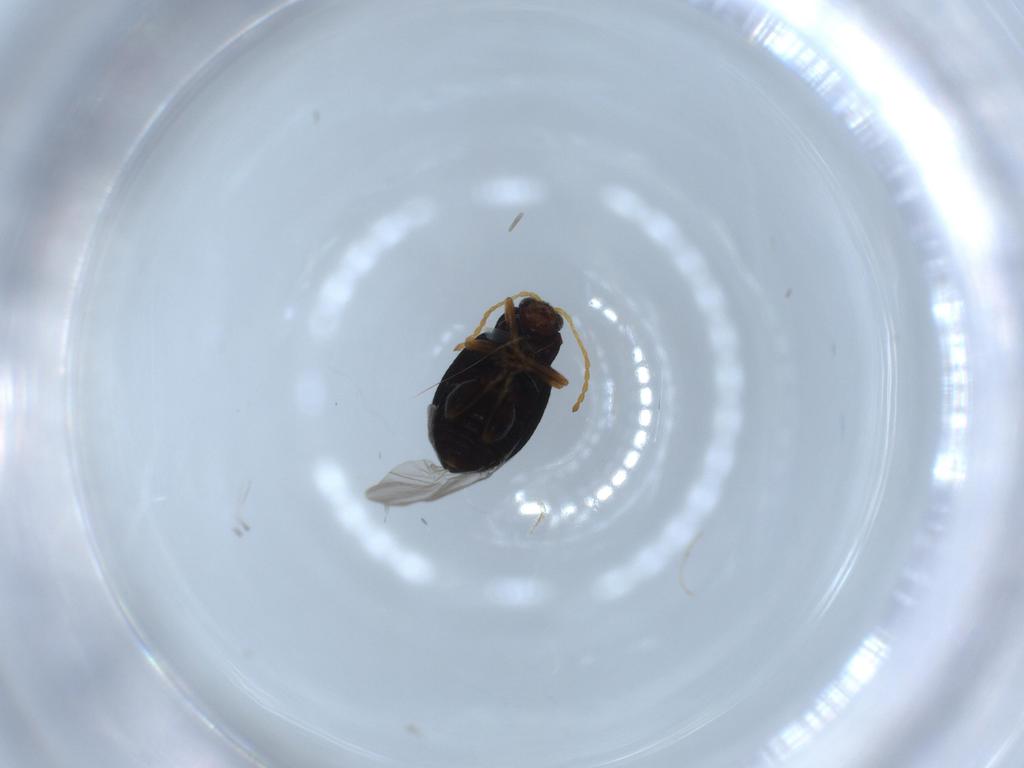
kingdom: Animalia
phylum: Arthropoda
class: Insecta
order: Coleoptera
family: Chrysomelidae
